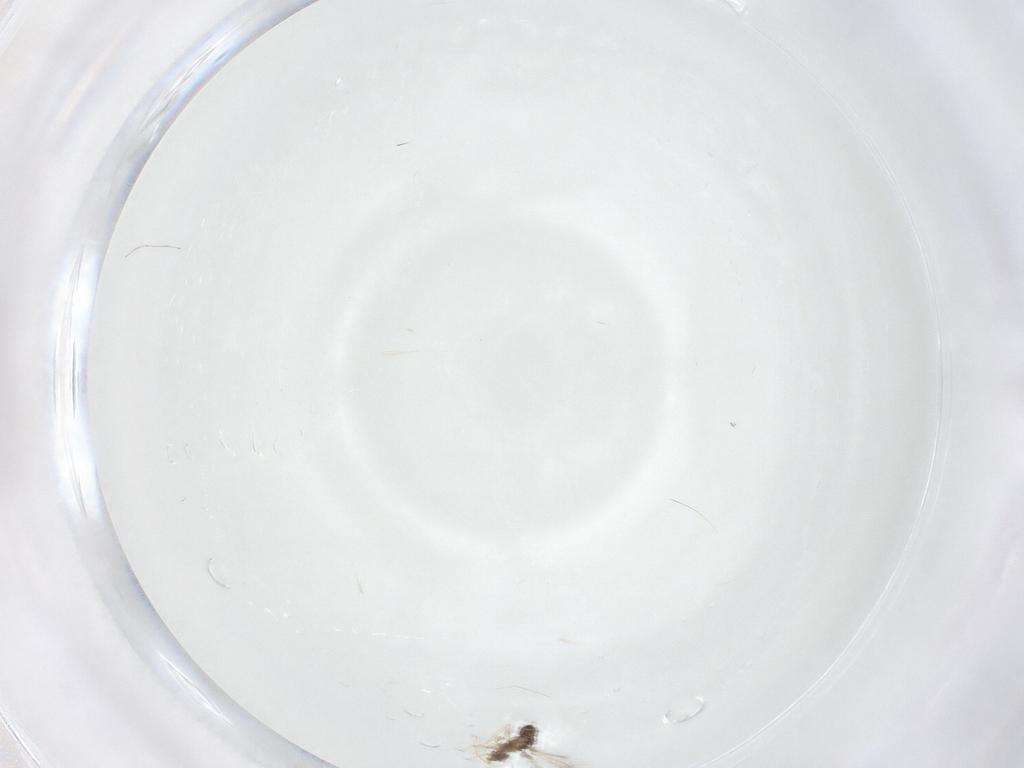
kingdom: Animalia
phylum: Arthropoda
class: Insecta
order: Hymenoptera
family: Mymaridae
